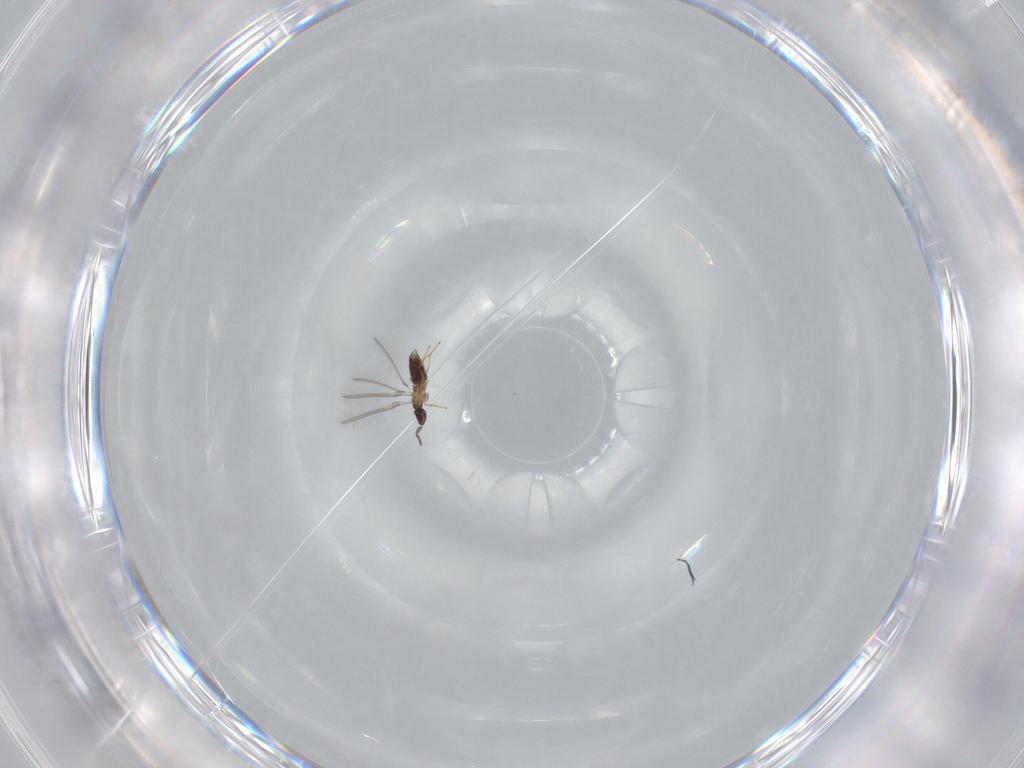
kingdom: Animalia
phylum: Arthropoda
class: Insecta
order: Hymenoptera
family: Mymaridae
